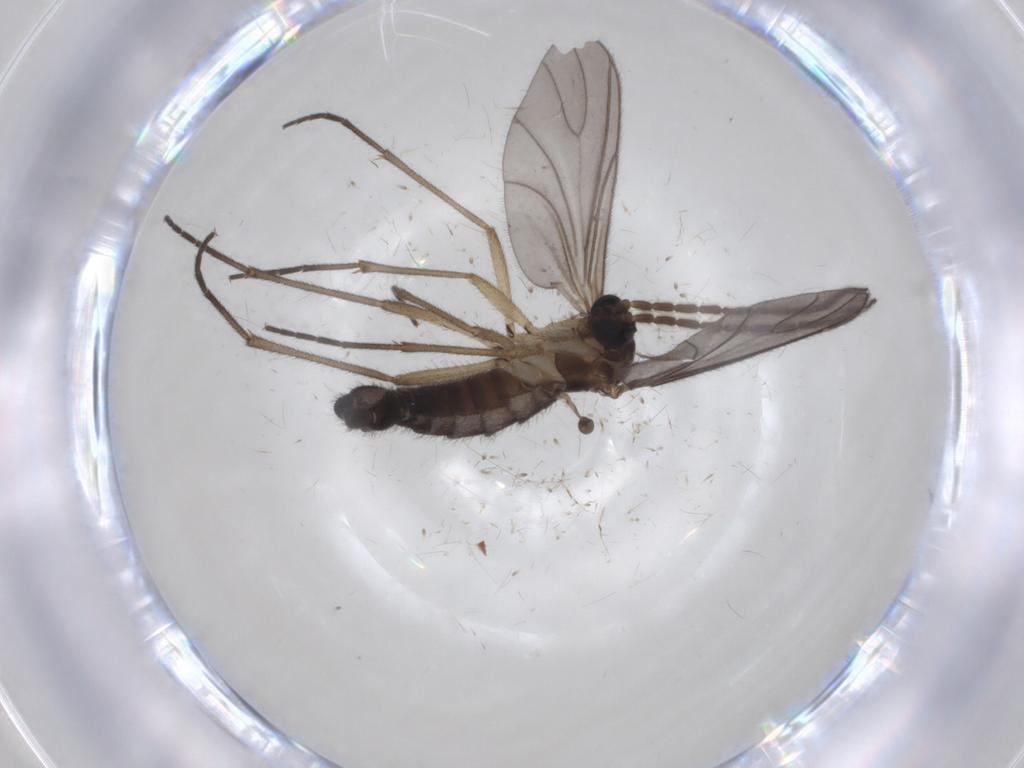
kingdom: Animalia
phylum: Arthropoda
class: Insecta
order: Diptera
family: Sciaridae
